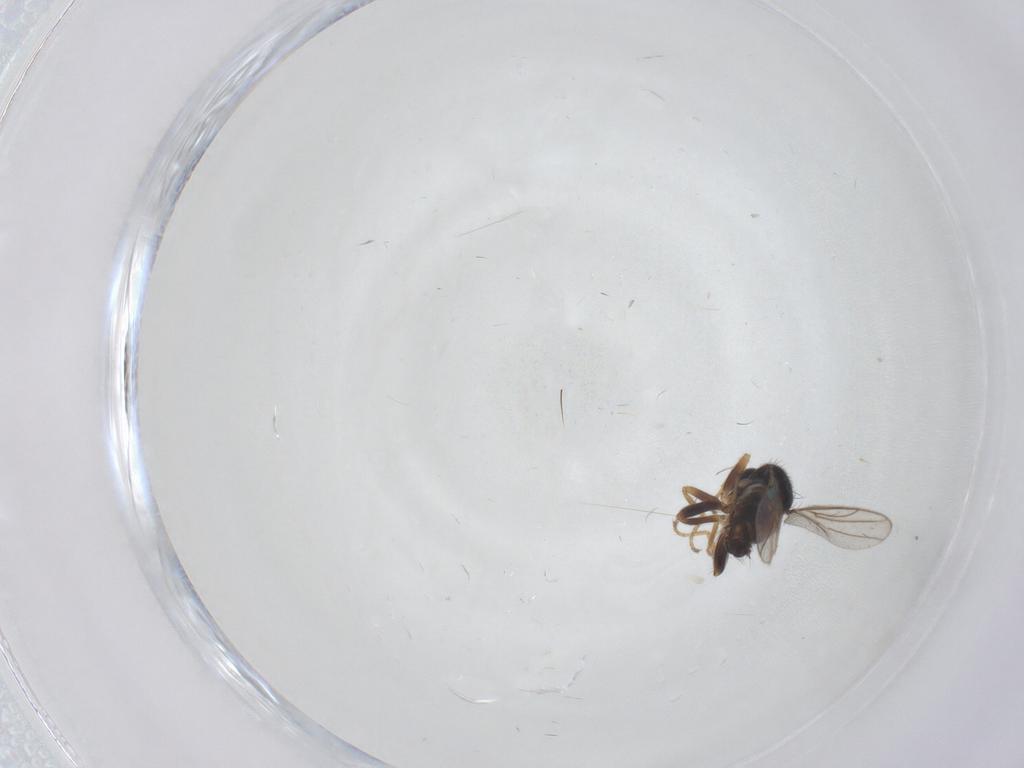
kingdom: Animalia
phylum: Arthropoda
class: Insecta
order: Diptera
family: Hybotidae
